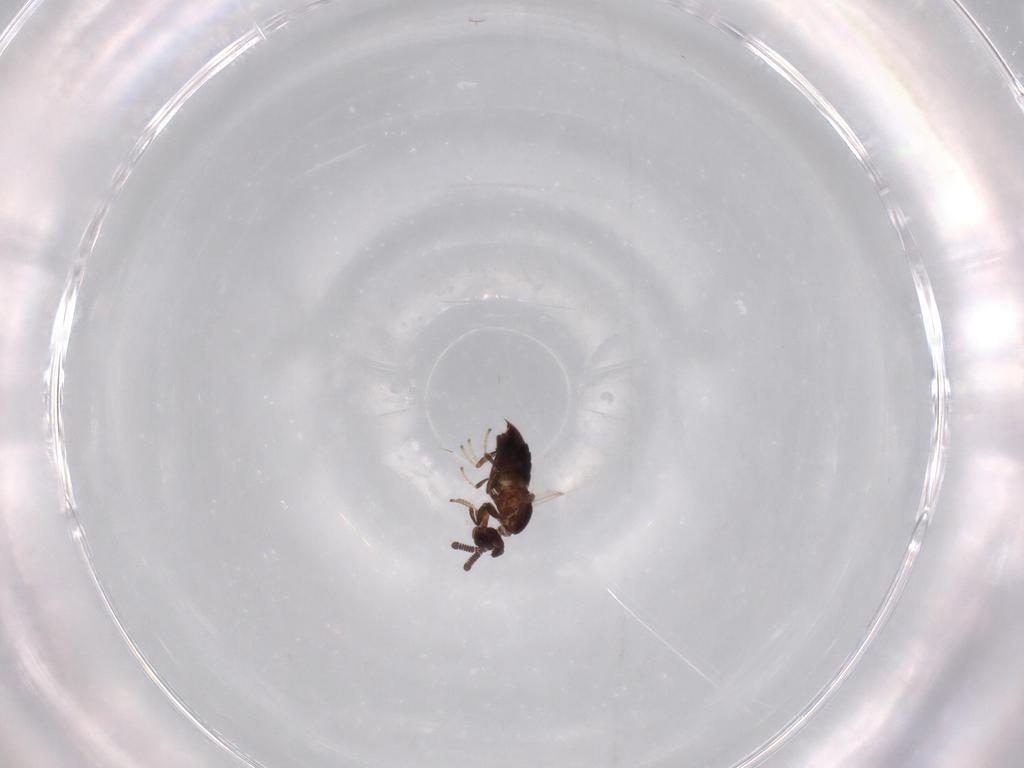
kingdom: Animalia
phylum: Arthropoda
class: Insecta
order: Diptera
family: Scatopsidae
